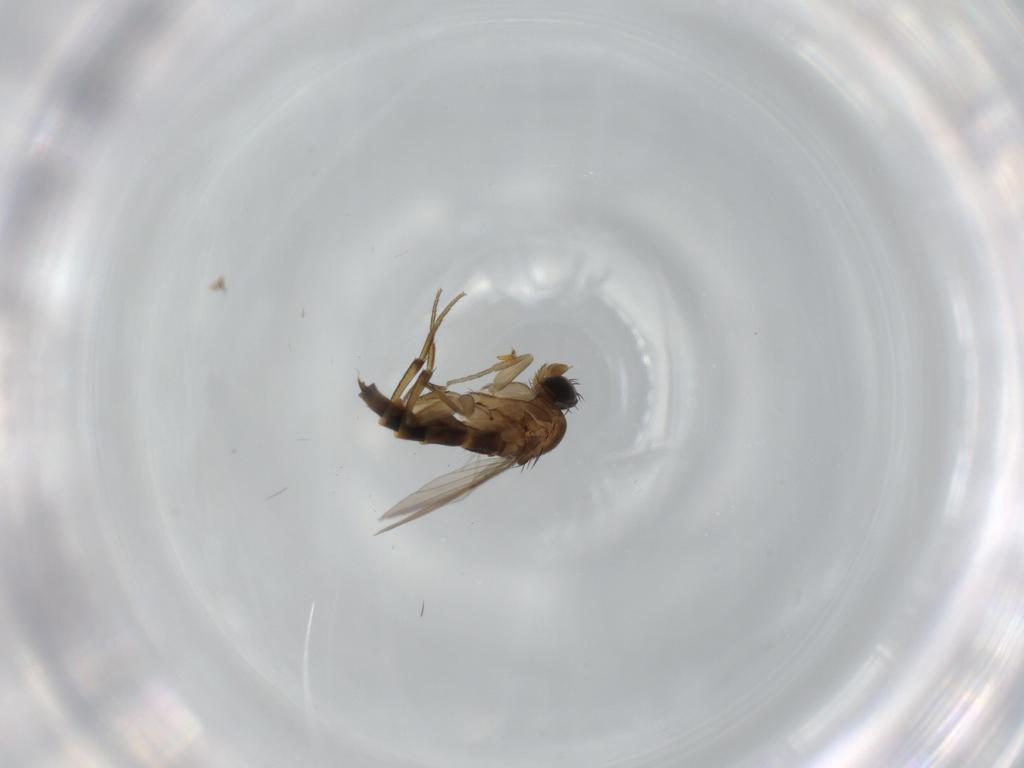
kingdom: Animalia
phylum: Arthropoda
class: Insecta
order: Diptera
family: Phoridae
